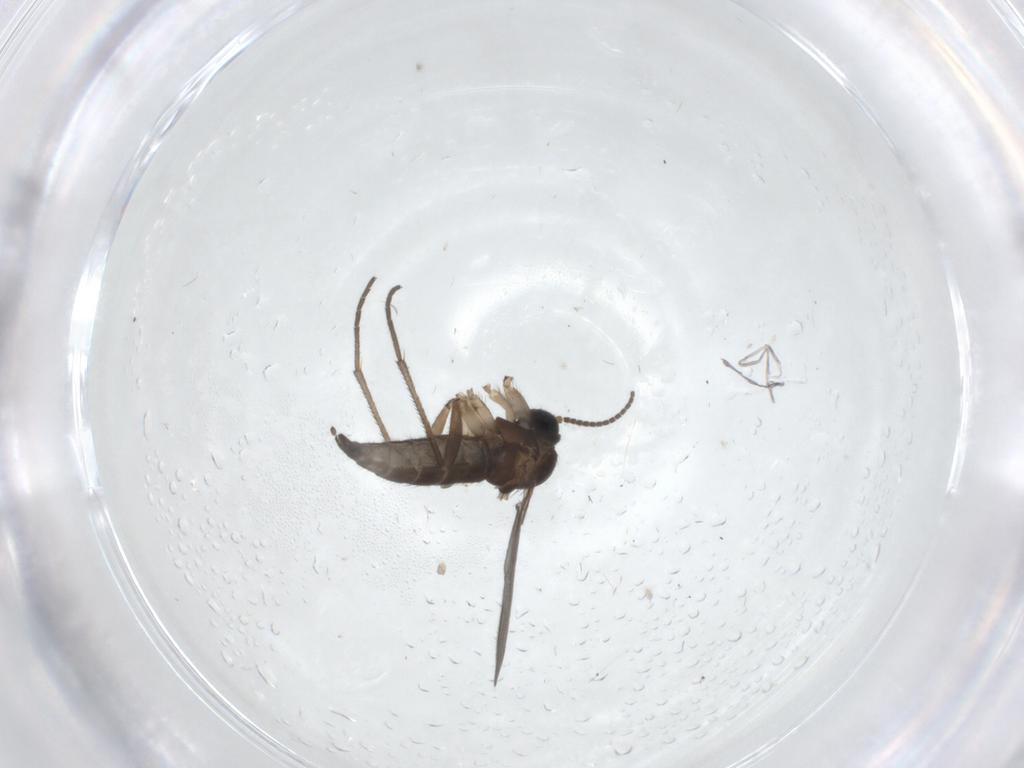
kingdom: Animalia
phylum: Arthropoda
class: Insecta
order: Diptera
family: Sciaridae
